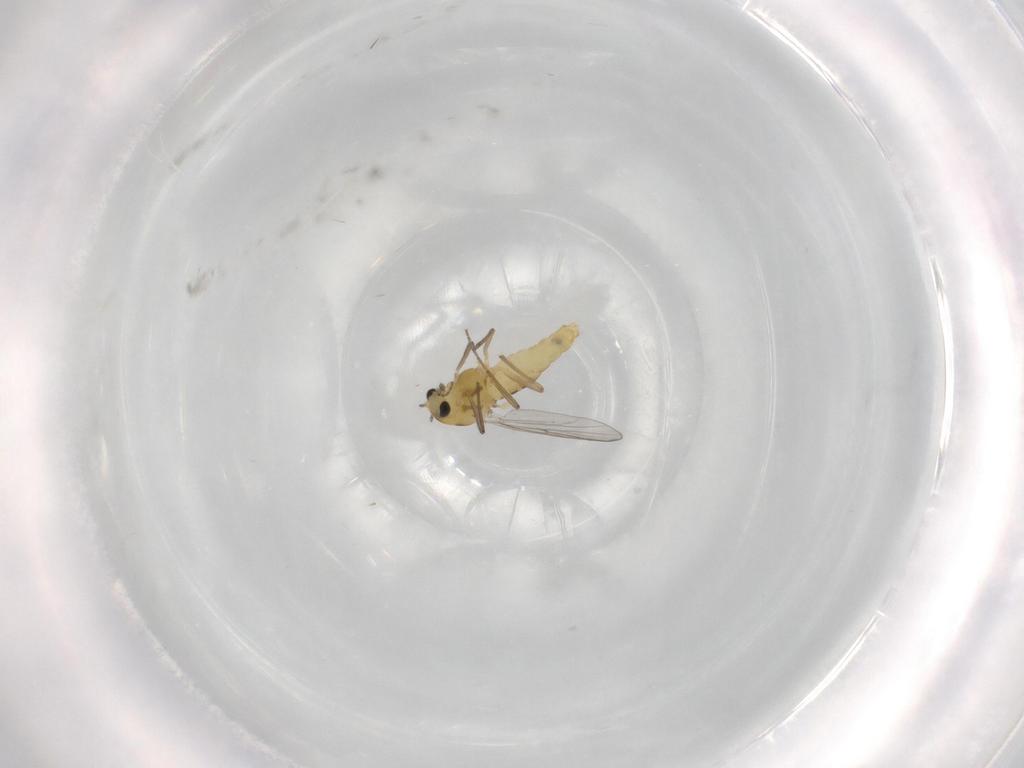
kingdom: Animalia
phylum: Arthropoda
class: Insecta
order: Diptera
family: Chironomidae
